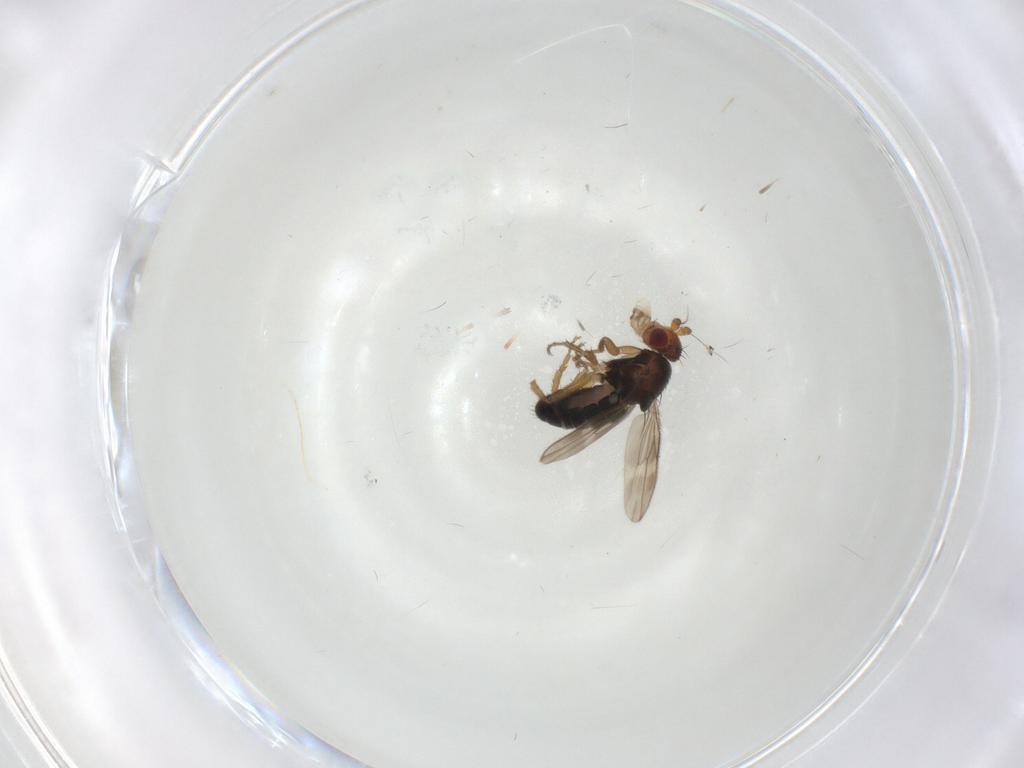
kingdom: Animalia
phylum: Arthropoda
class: Insecta
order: Diptera
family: Sphaeroceridae
